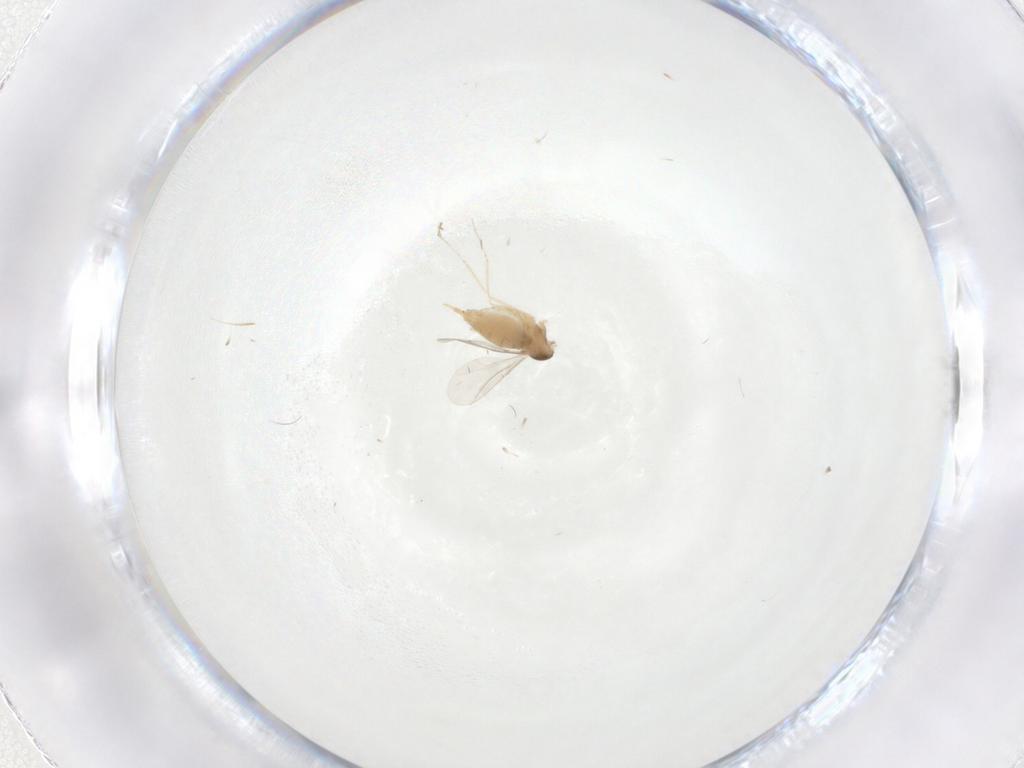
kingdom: Animalia
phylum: Arthropoda
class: Insecta
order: Diptera
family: Cecidomyiidae
